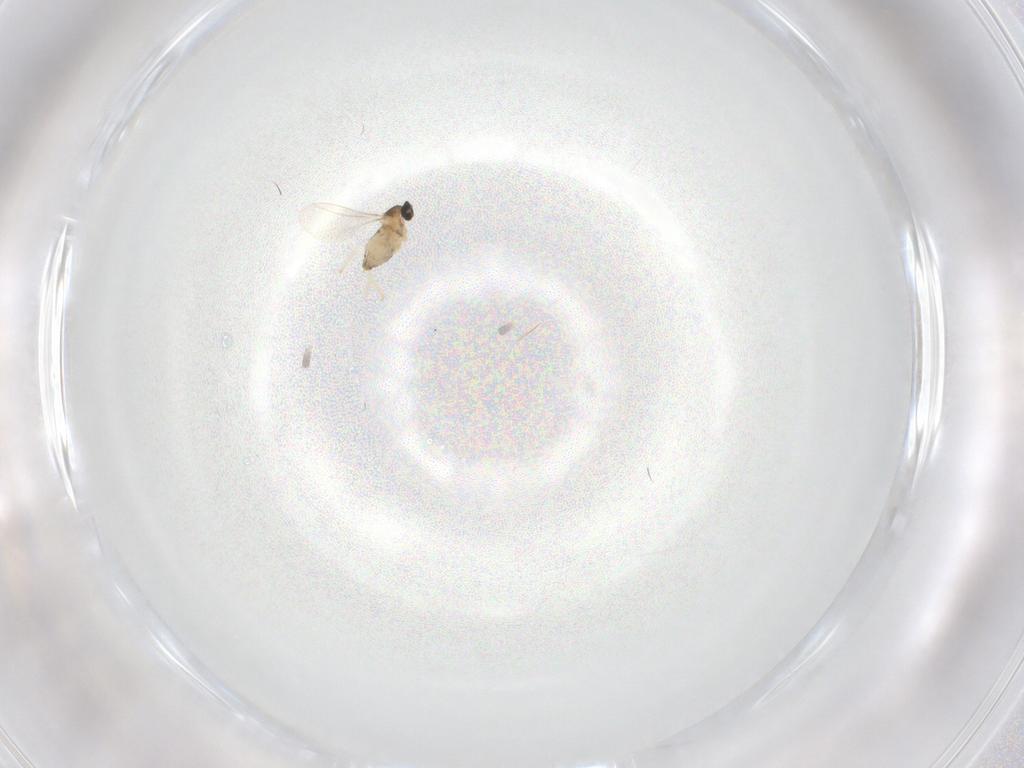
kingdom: Animalia
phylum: Arthropoda
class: Insecta
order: Diptera
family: Cecidomyiidae
